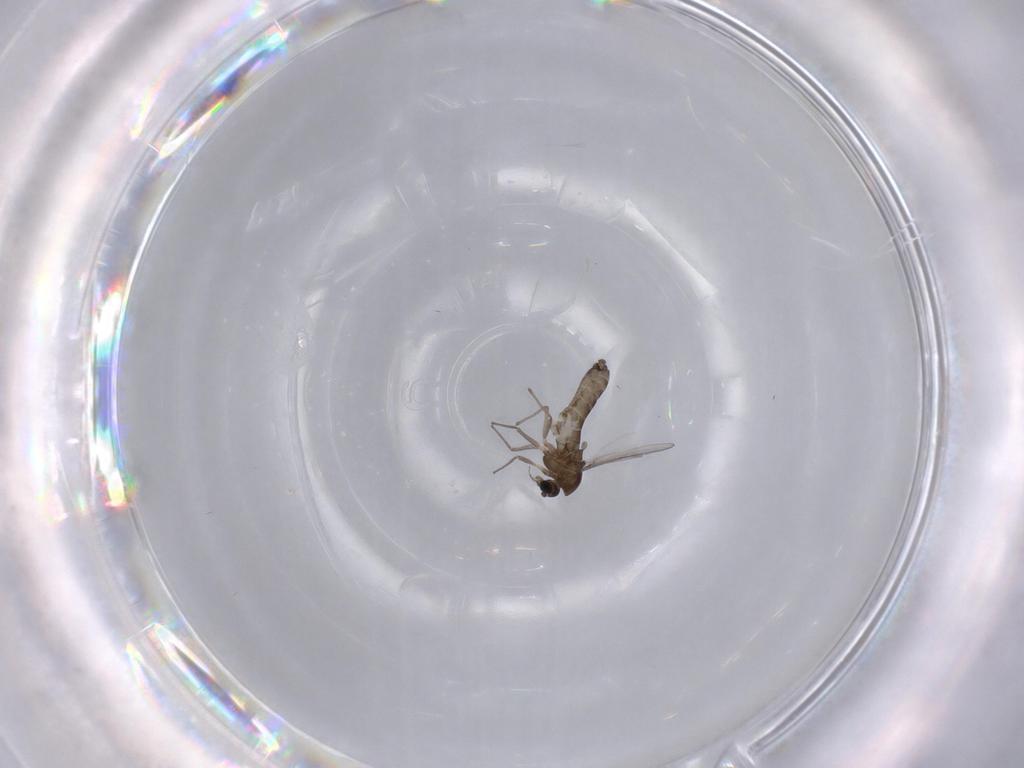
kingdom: Animalia
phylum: Arthropoda
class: Insecta
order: Diptera
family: Chironomidae
